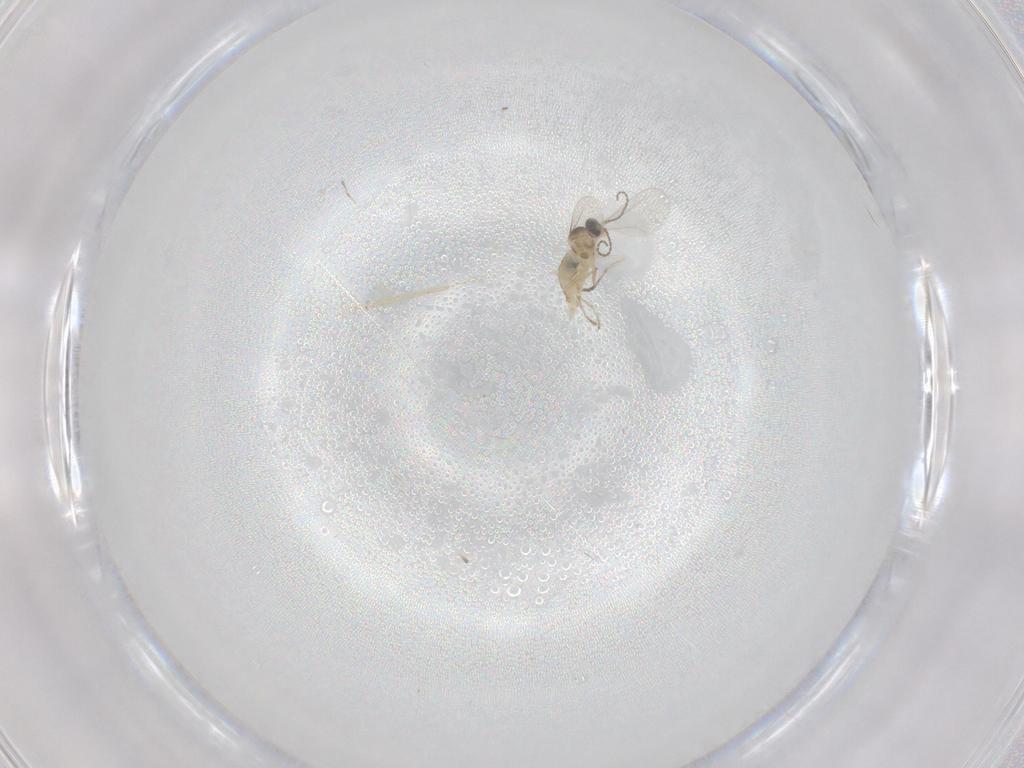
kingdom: Animalia
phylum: Arthropoda
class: Insecta
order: Diptera
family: Cecidomyiidae
